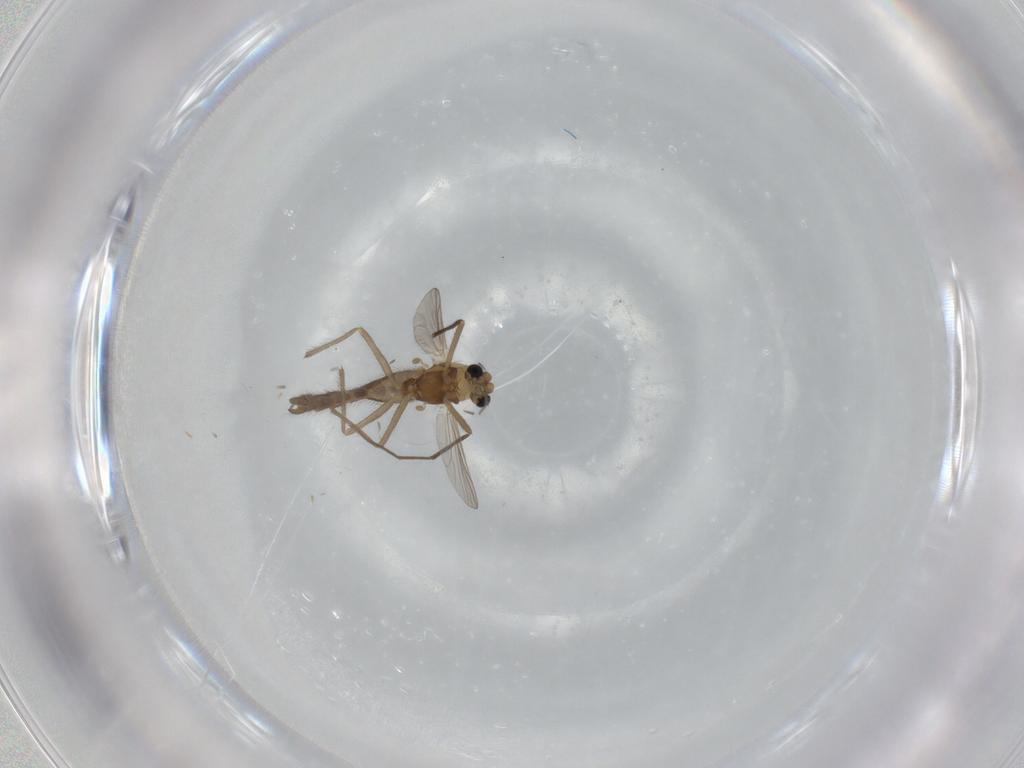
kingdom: Animalia
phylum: Arthropoda
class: Insecta
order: Diptera
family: Chironomidae
